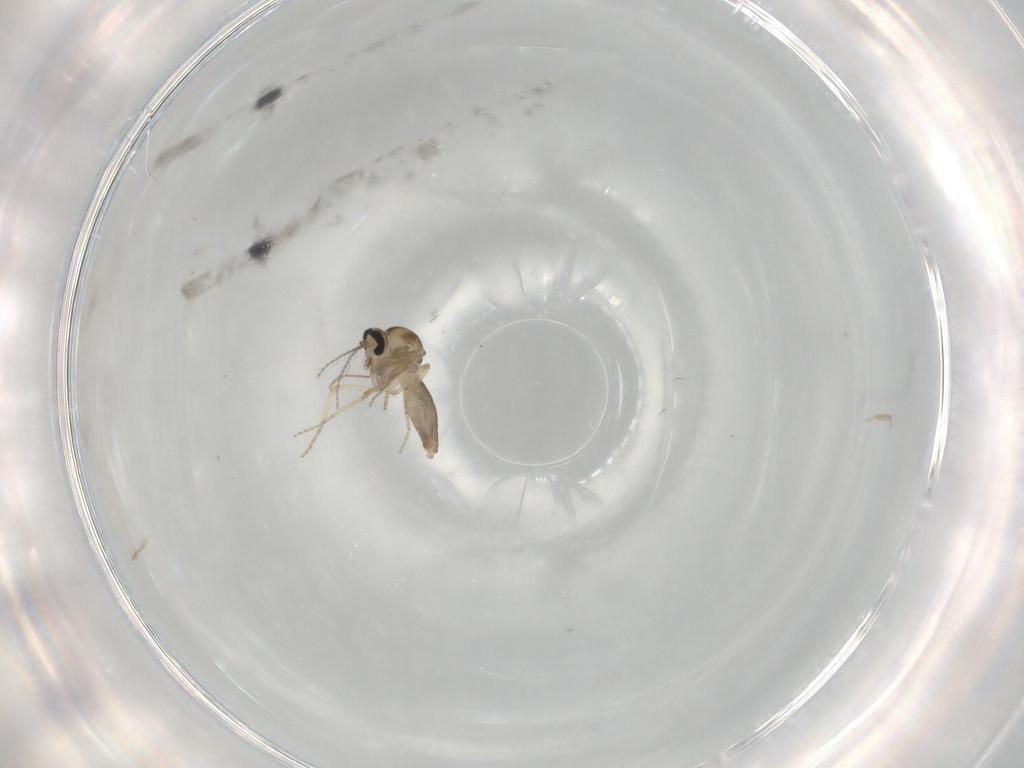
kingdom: Animalia
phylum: Arthropoda
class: Insecta
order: Diptera
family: Ceratopogonidae
